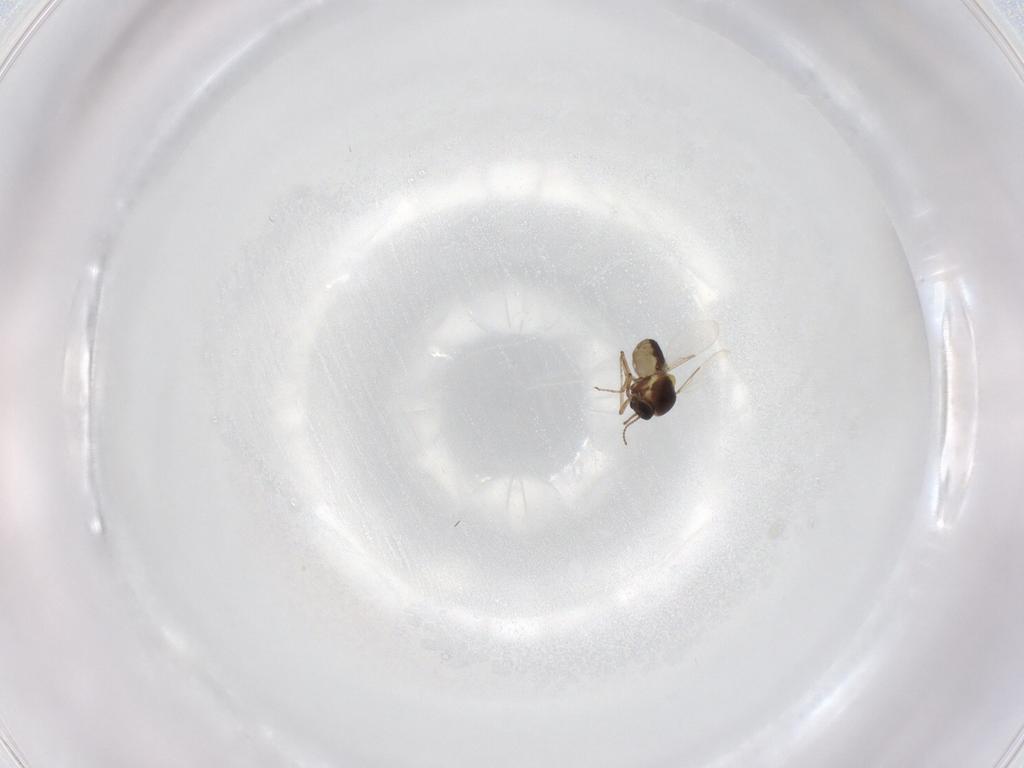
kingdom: Animalia
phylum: Arthropoda
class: Insecta
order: Diptera
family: Ceratopogonidae
